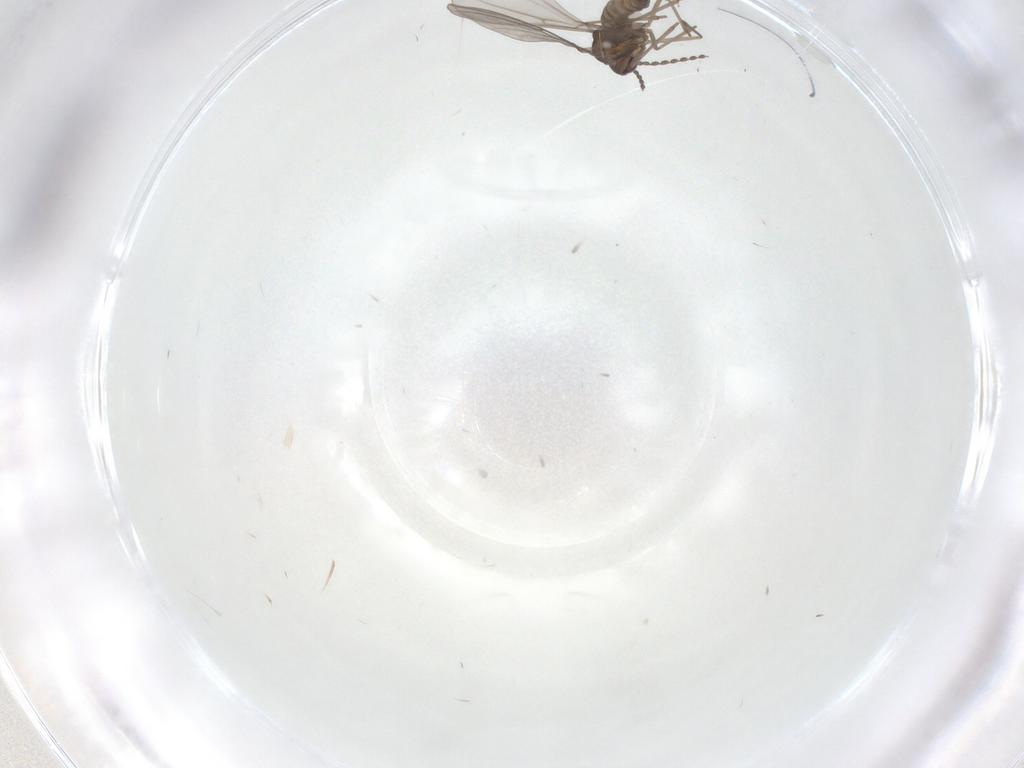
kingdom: Animalia
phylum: Arthropoda
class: Insecta
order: Diptera
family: Cecidomyiidae
